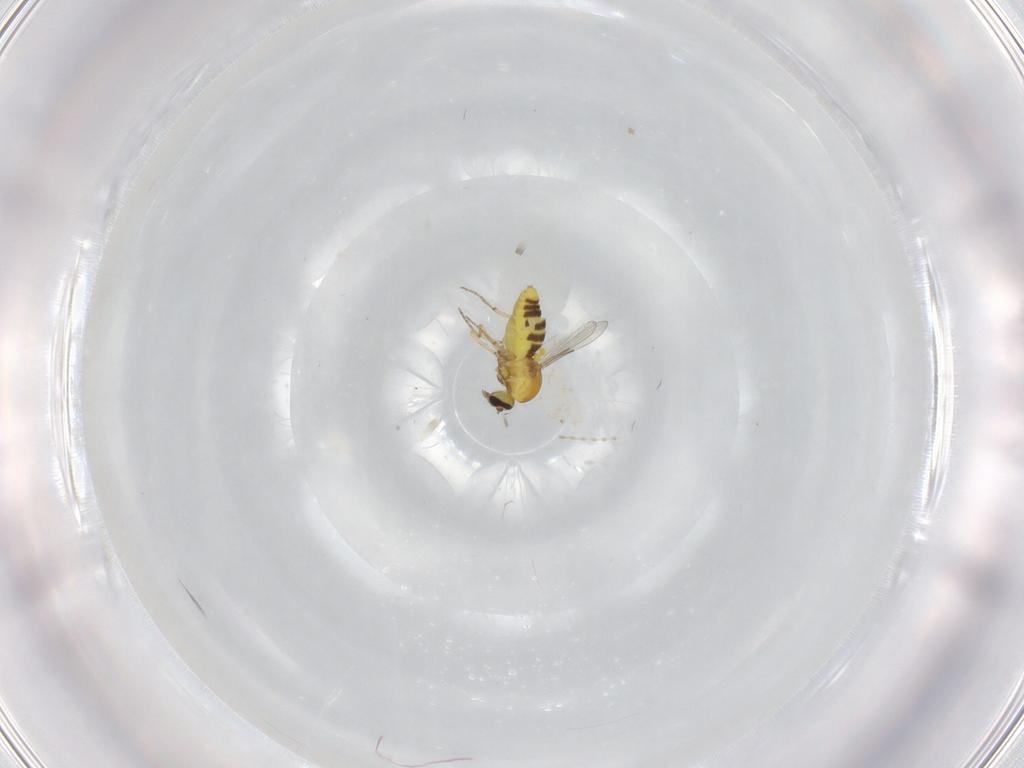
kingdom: Animalia
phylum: Arthropoda
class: Insecta
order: Diptera
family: Ceratopogonidae
